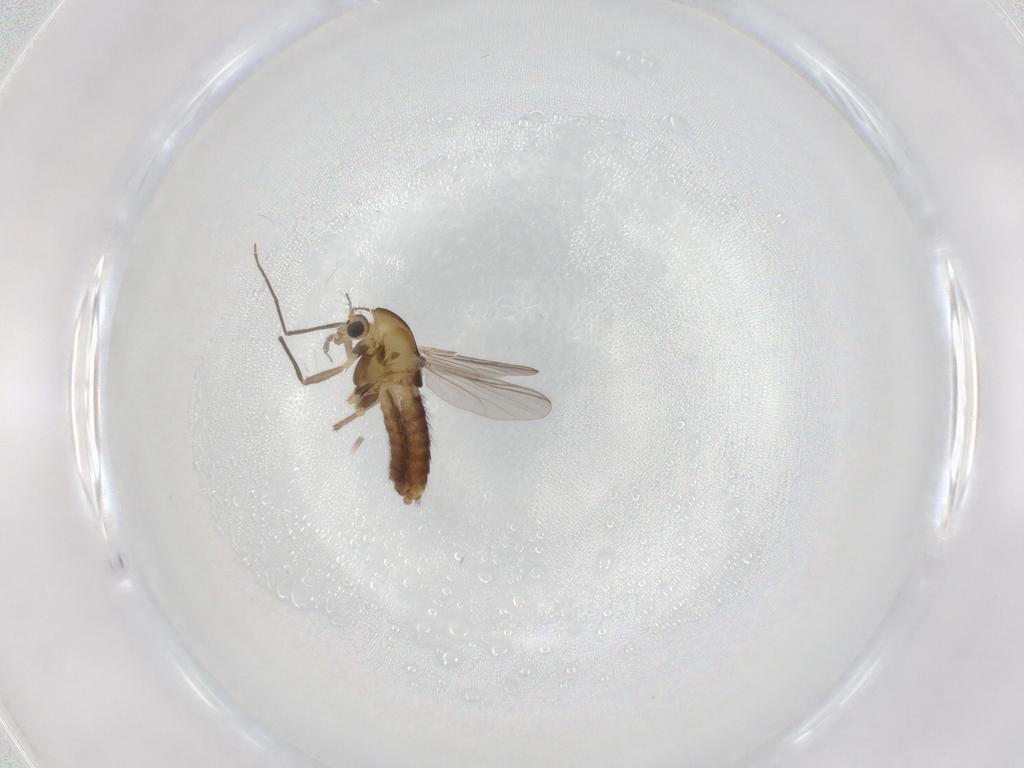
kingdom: Animalia
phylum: Arthropoda
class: Insecta
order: Diptera
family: Chironomidae
